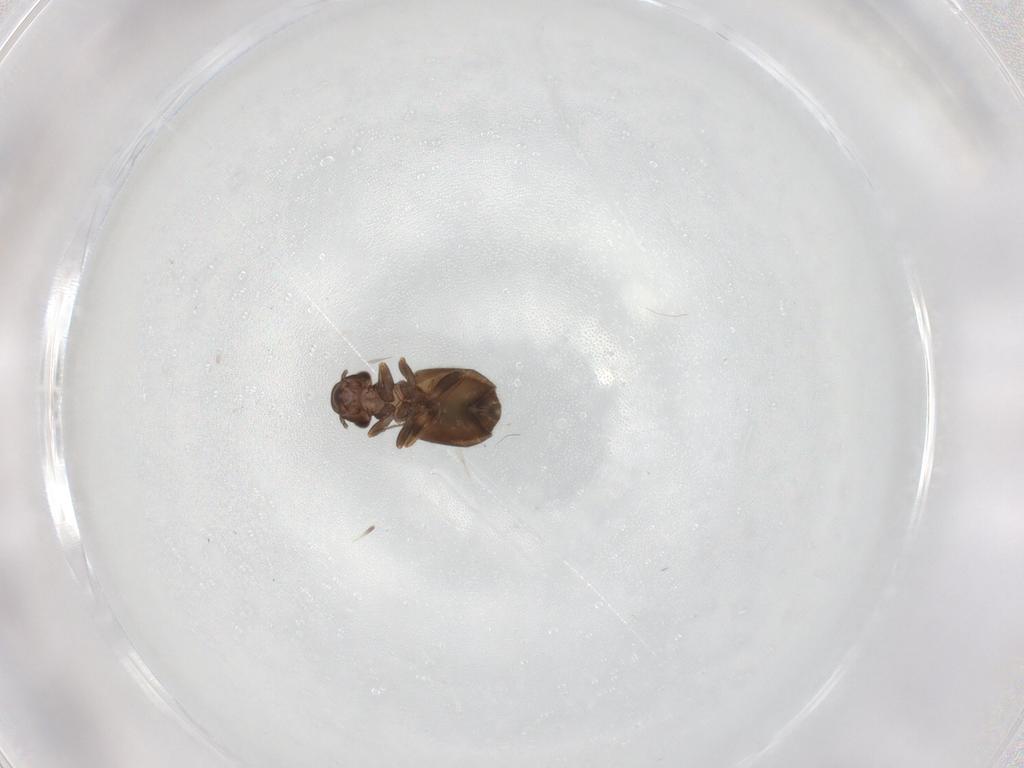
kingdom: Animalia
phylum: Arthropoda
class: Insecta
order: Psocodea
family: Trogiidae
